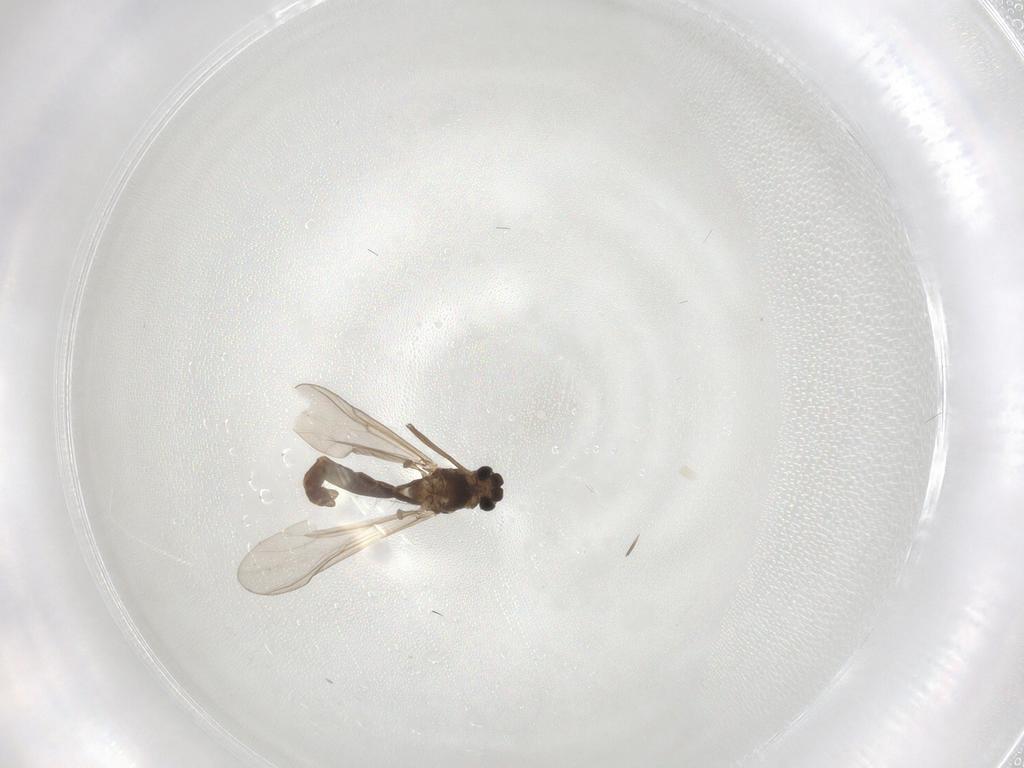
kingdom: Animalia
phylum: Arthropoda
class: Insecta
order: Diptera
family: Chironomidae
